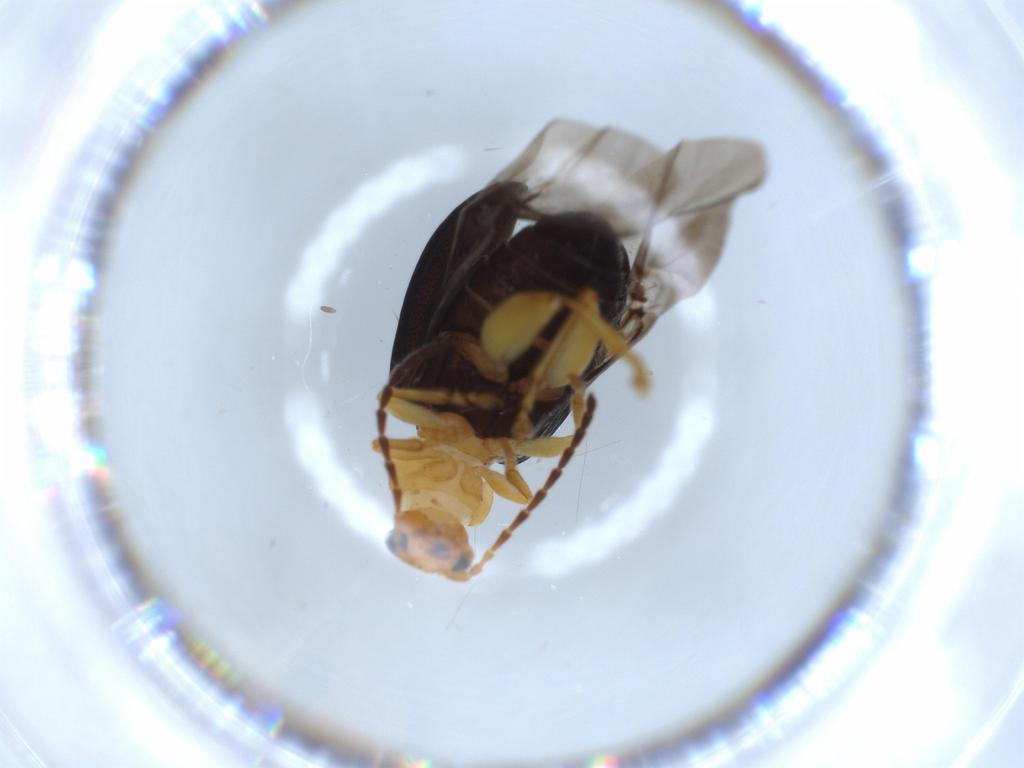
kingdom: Animalia
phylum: Arthropoda
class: Insecta
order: Coleoptera
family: Chrysomelidae
